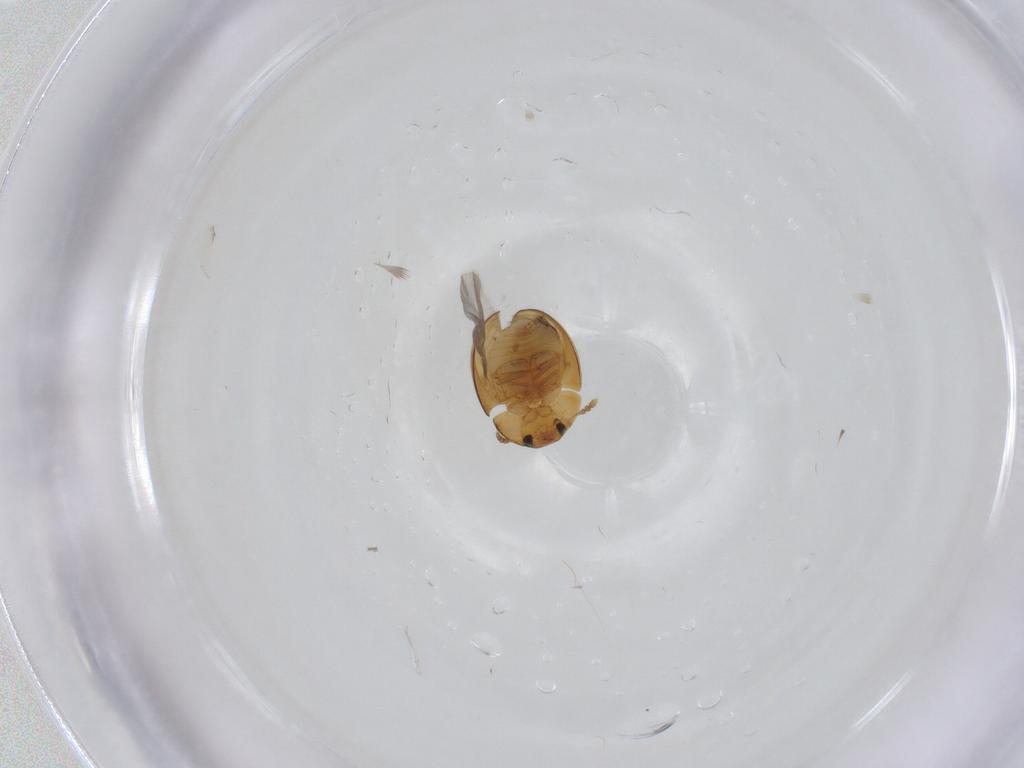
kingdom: Animalia
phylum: Arthropoda
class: Insecta
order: Coleoptera
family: Phalacridae
